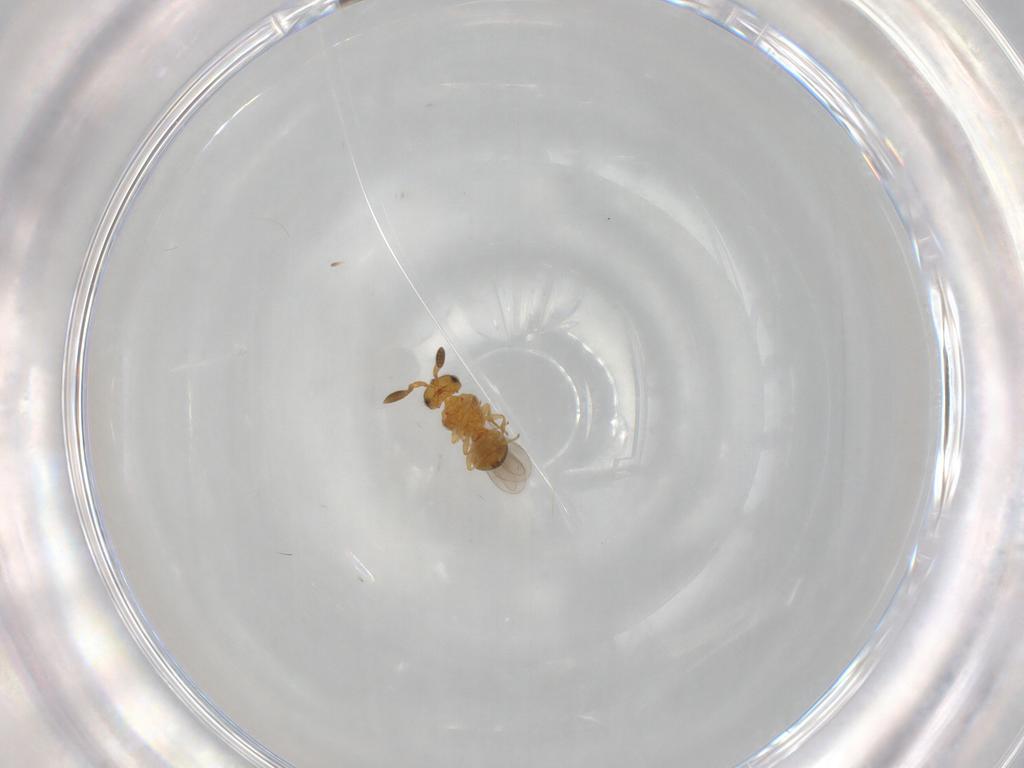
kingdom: Animalia
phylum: Arthropoda
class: Insecta
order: Hymenoptera
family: Scelionidae
